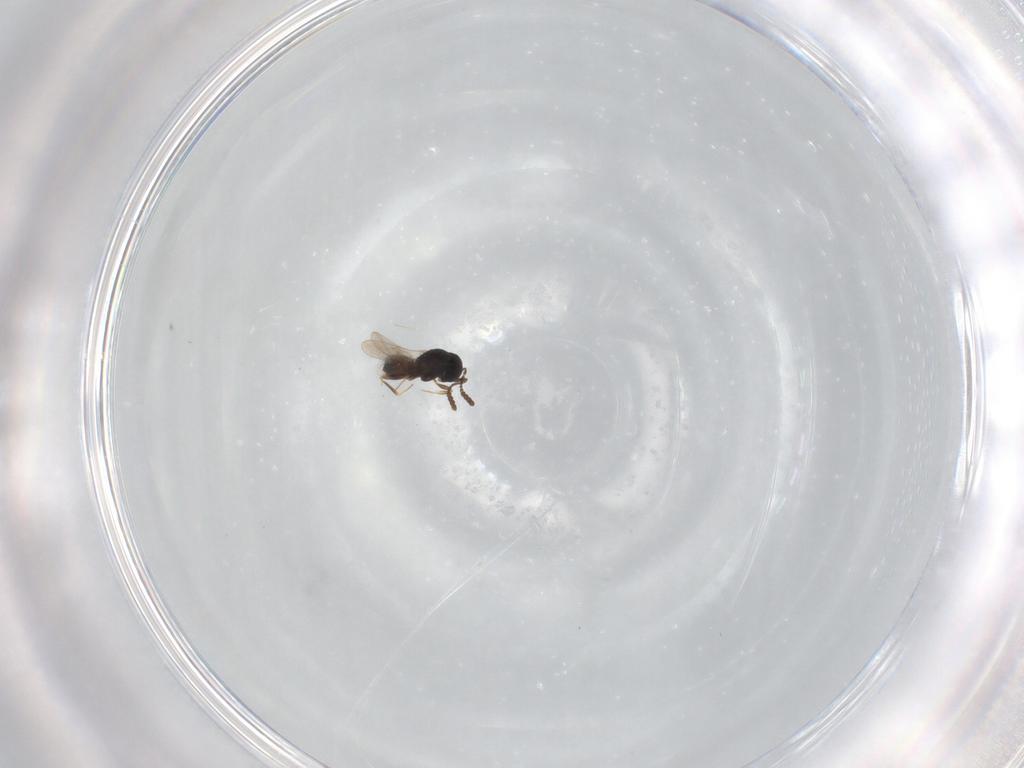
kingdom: Animalia
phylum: Arthropoda
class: Insecta
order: Hymenoptera
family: Scelionidae
